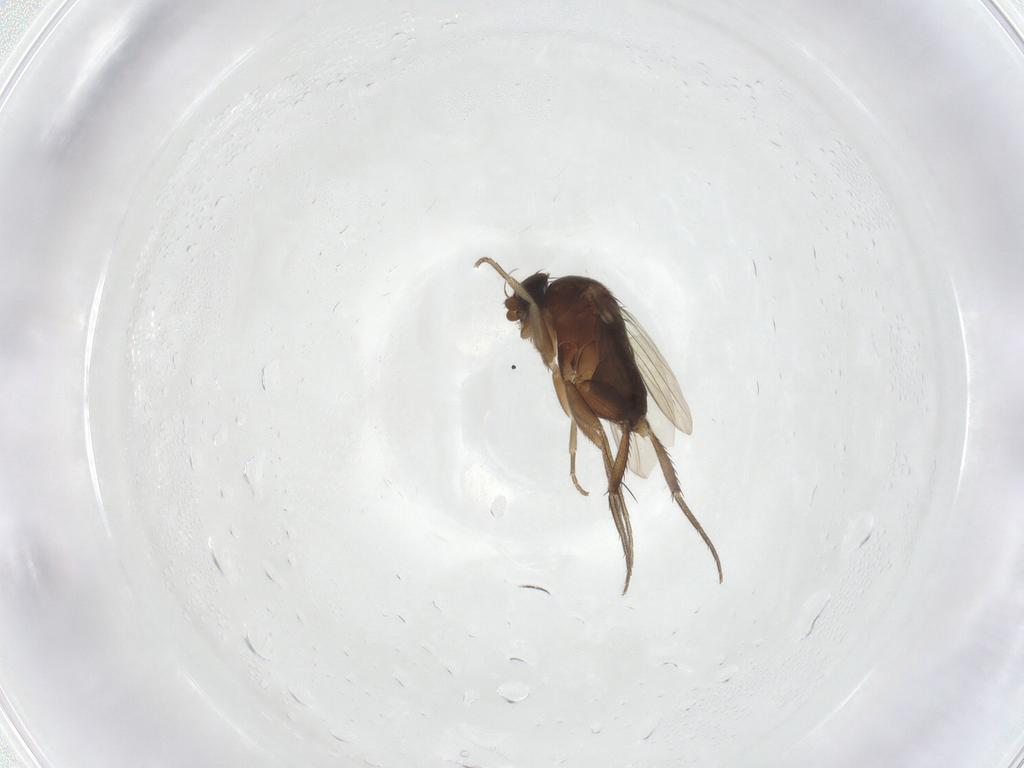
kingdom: Animalia
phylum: Arthropoda
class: Insecta
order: Diptera
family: Phoridae
